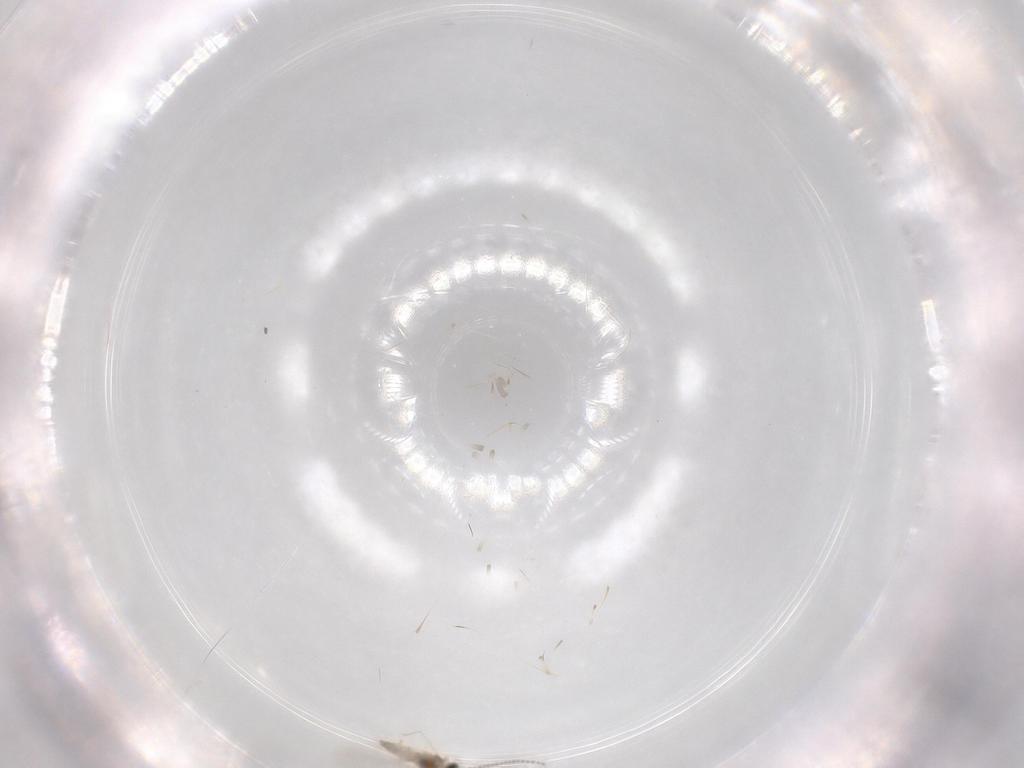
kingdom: Animalia
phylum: Arthropoda
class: Insecta
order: Diptera
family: Cecidomyiidae
